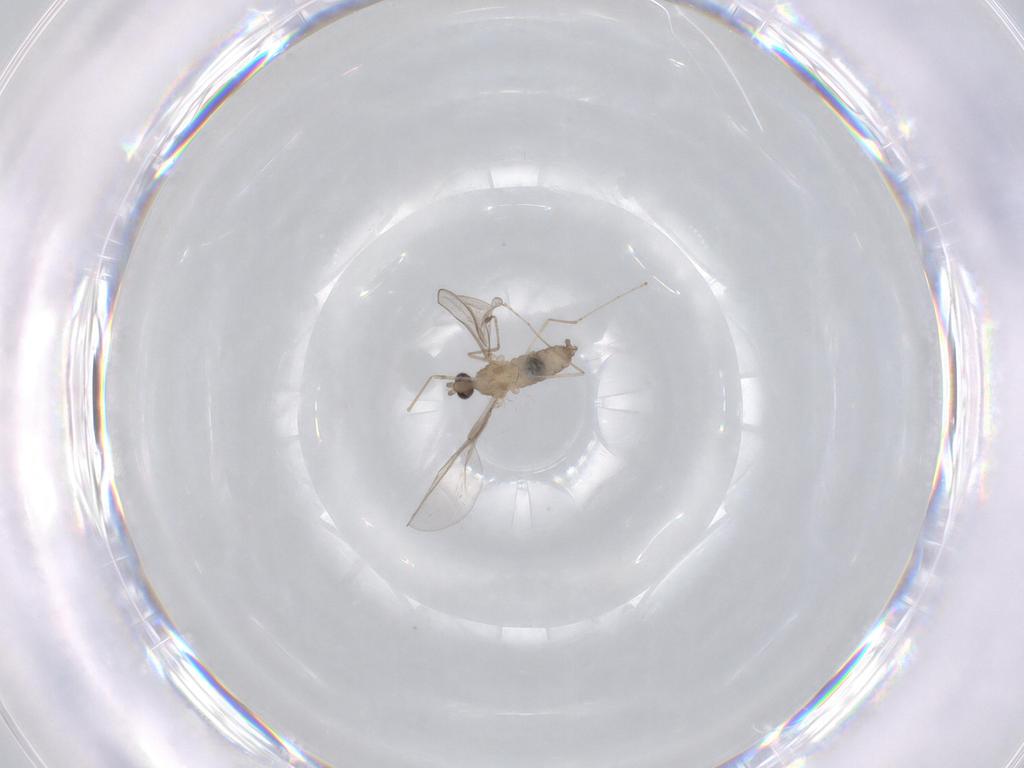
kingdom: Animalia
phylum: Arthropoda
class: Insecta
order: Diptera
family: Cecidomyiidae
